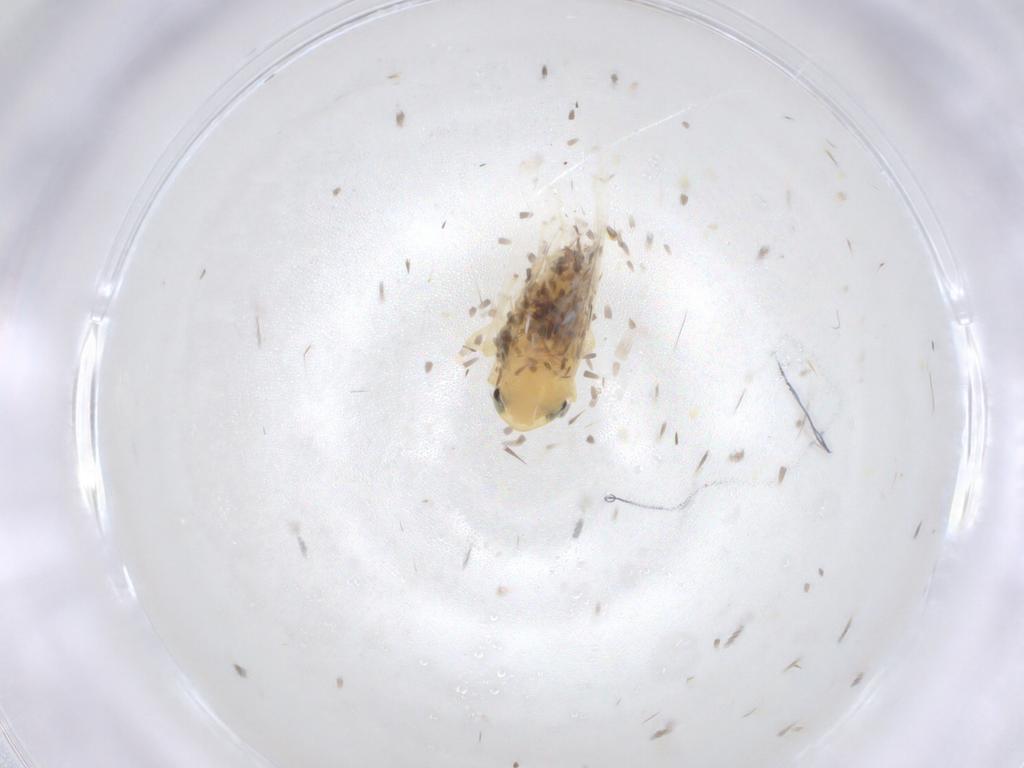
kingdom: Animalia
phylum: Arthropoda
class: Insecta
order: Hemiptera
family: Cicadellidae
